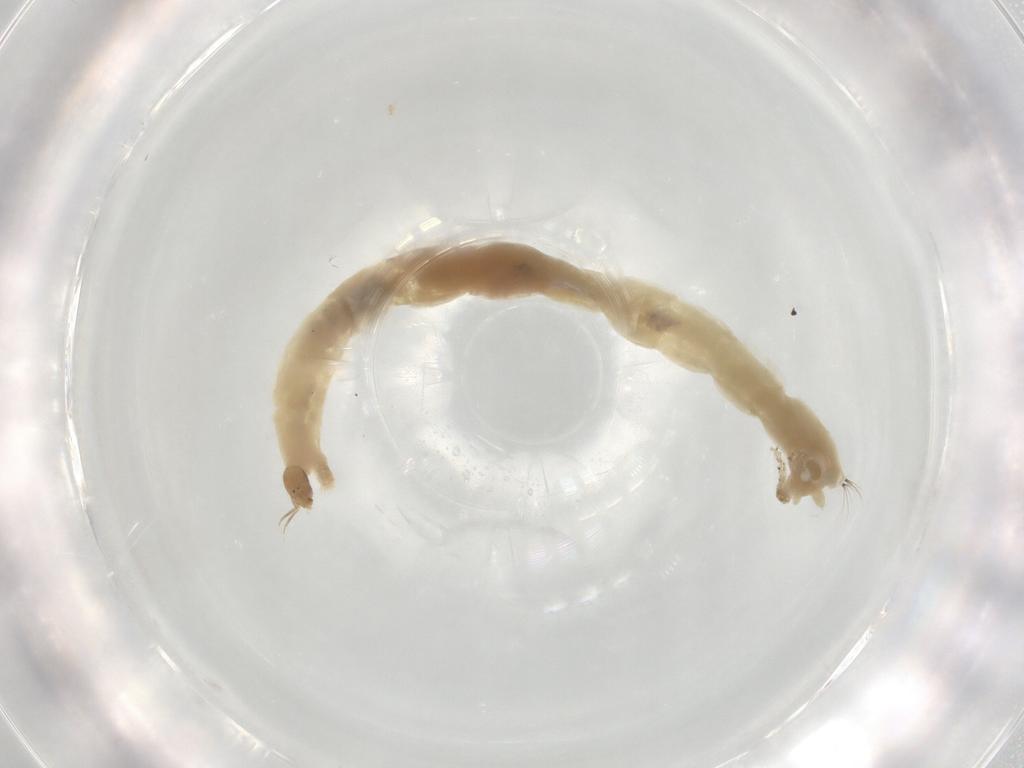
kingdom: Animalia
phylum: Arthropoda
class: Insecta
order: Diptera
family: Chironomidae
